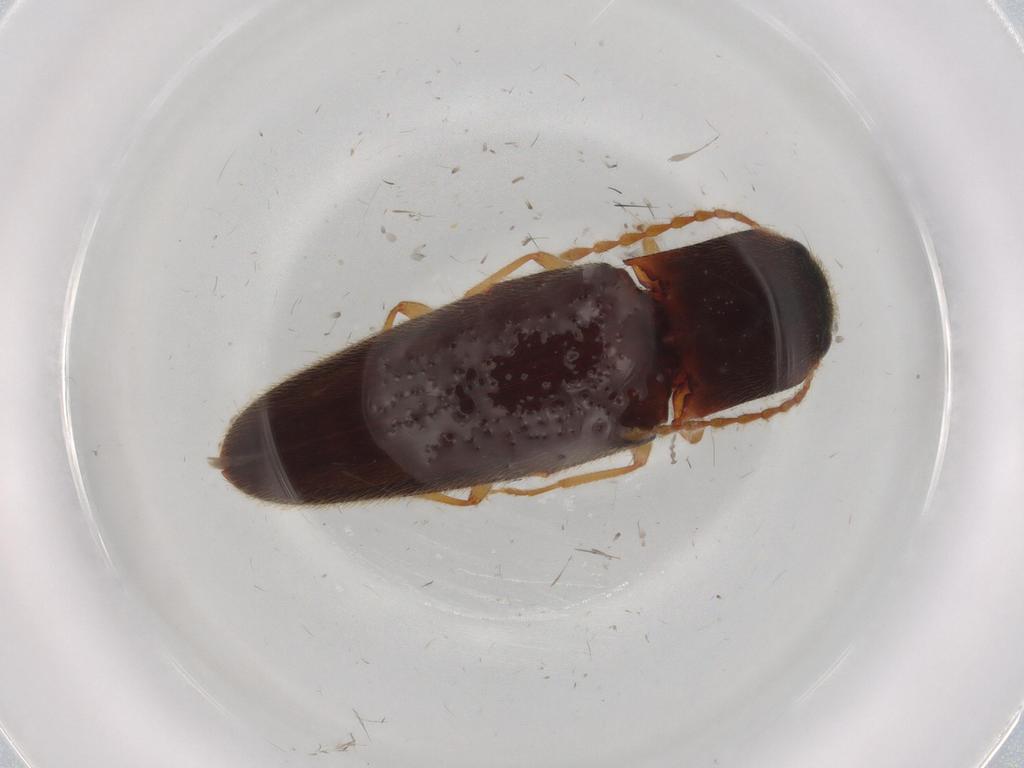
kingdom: Animalia
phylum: Arthropoda
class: Insecta
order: Coleoptera
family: Elateridae
